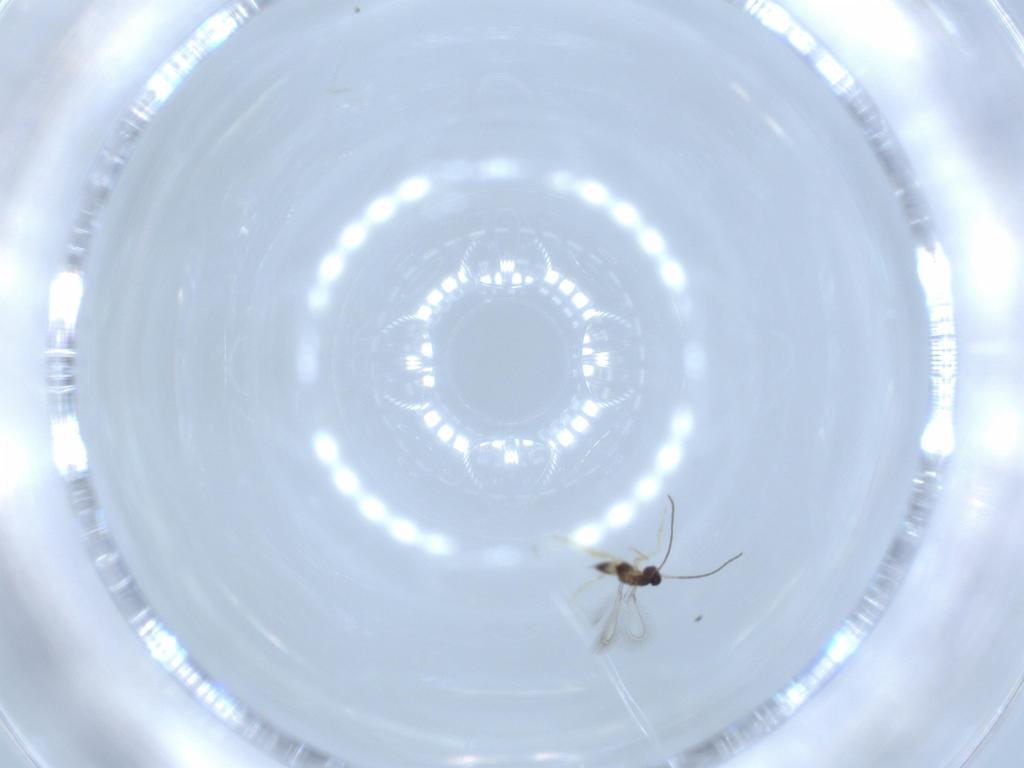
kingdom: Animalia
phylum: Arthropoda
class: Insecta
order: Hymenoptera
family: Mymaridae
